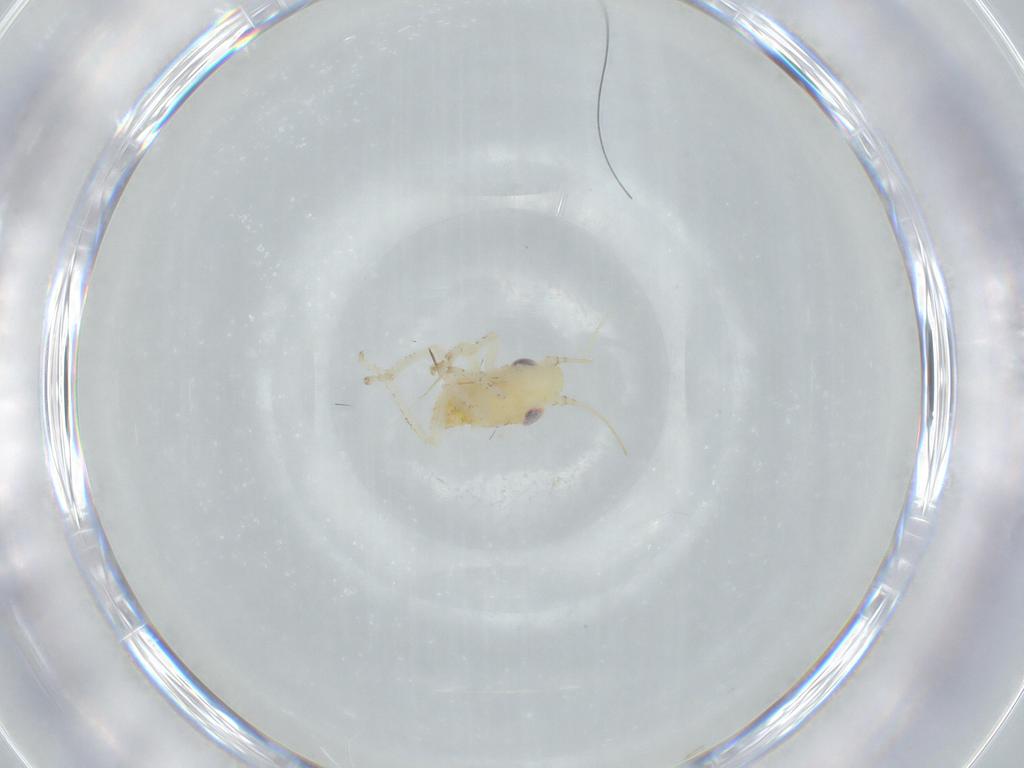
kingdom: Animalia
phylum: Arthropoda
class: Insecta
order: Hemiptera
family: Cicadellidae
